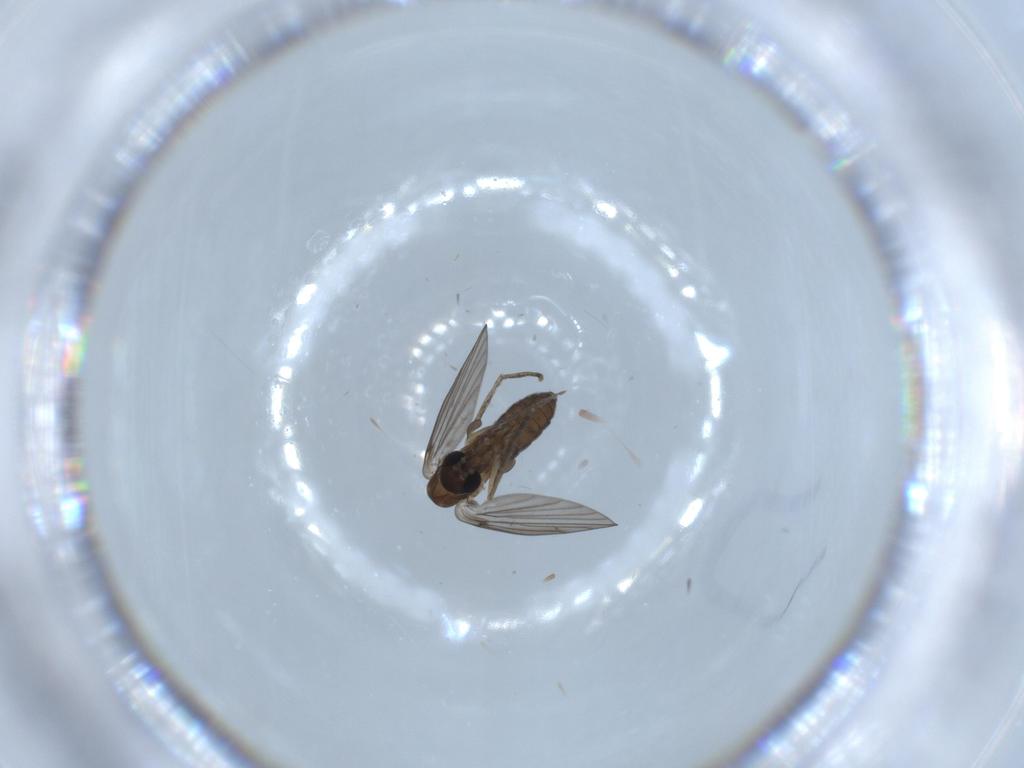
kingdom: Animalia
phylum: Arthropoda
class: Insecta
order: Diptera
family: Psychodidae
